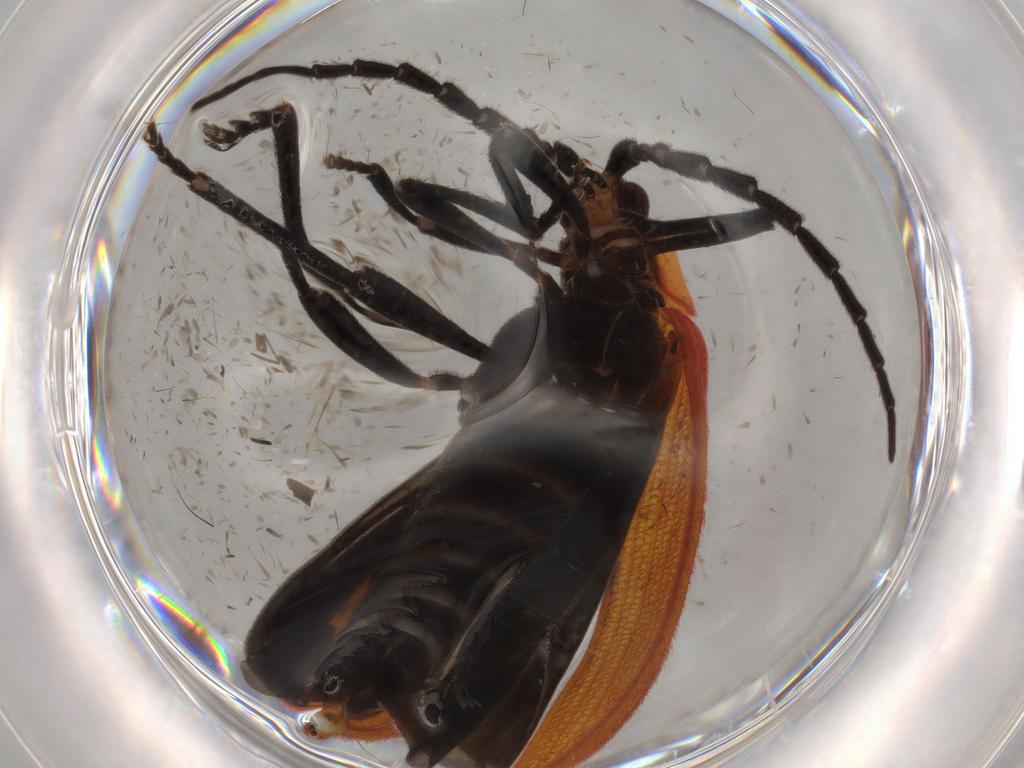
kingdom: Animalia
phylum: Arthropoda
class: Insecta
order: Coleoptera
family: Lycidae
